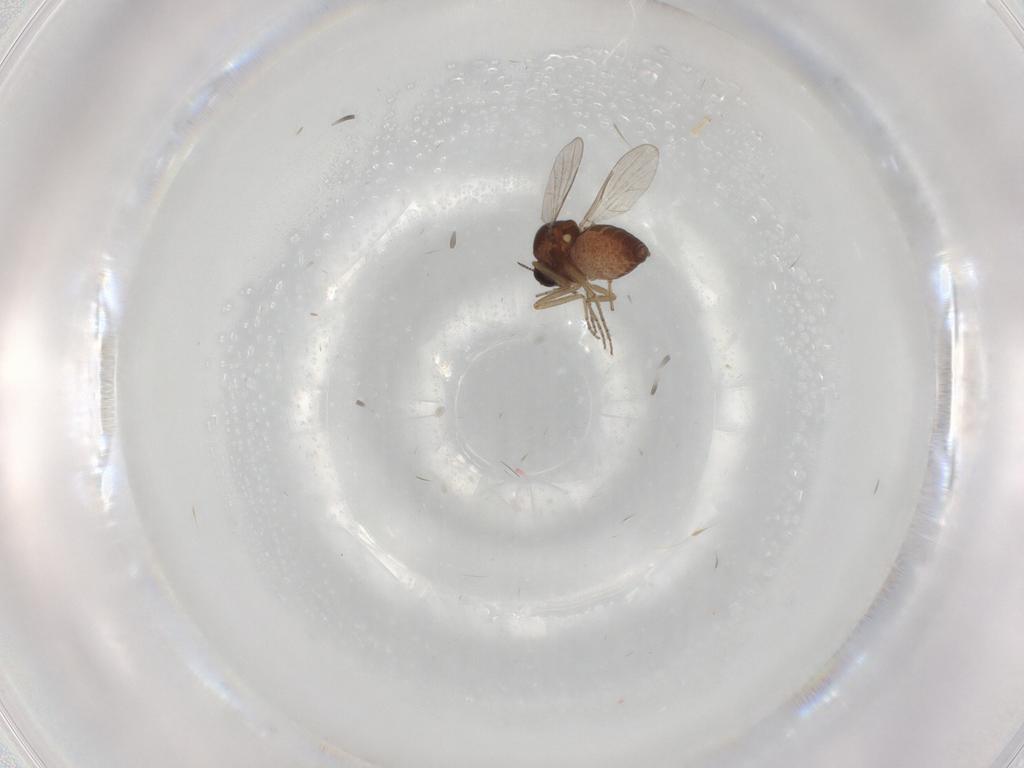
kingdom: Animalia
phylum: Arthropoda
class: Insecta
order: Diptera
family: Ceratopogonidae
